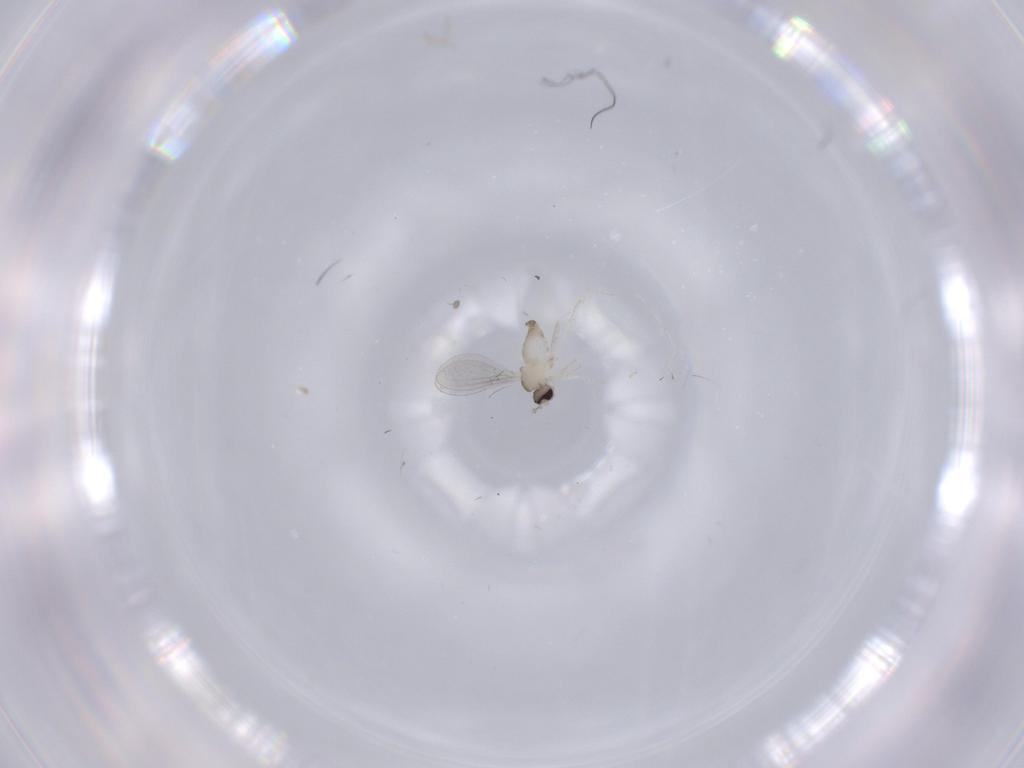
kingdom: Animalia
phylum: Arthropoda
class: Insecta
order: Diptera
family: Cecidomyiidae
